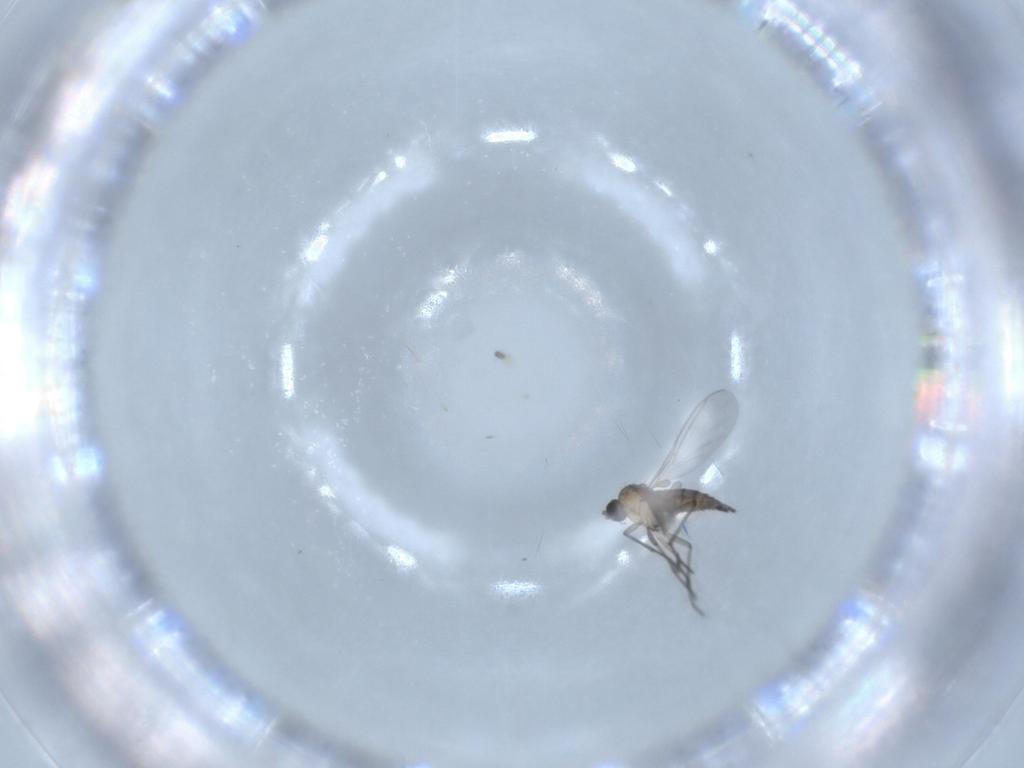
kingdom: Animalia
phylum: Arthropoda
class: Insecta
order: Diptera
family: Sciaridae
